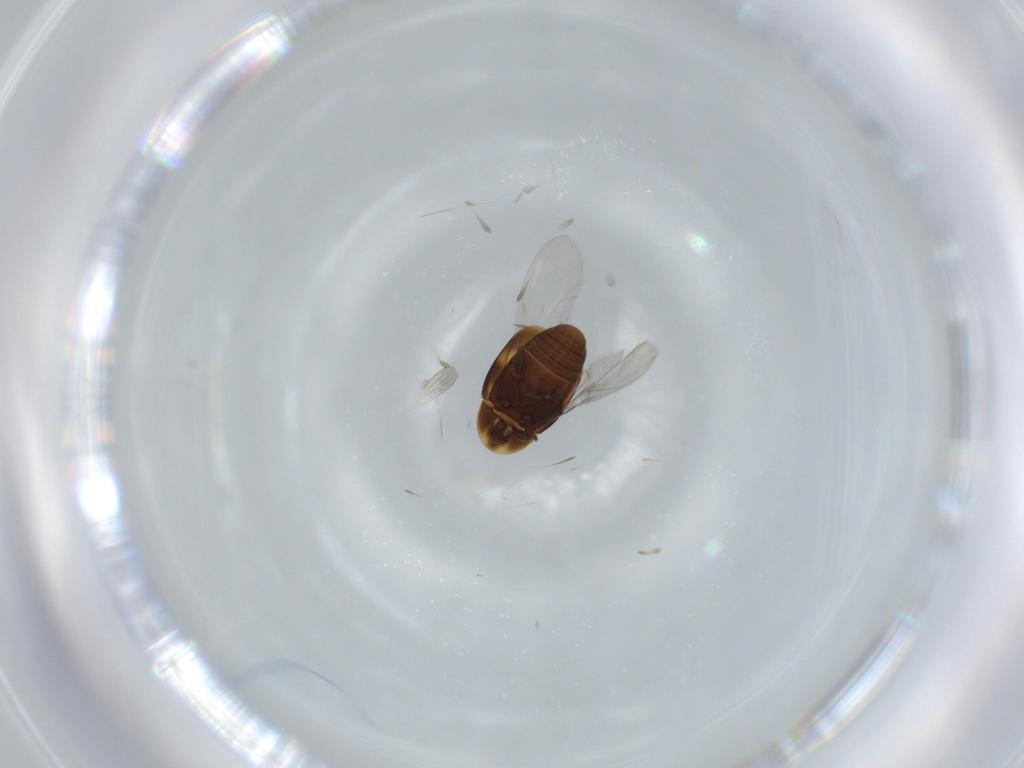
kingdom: Animalia
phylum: Arthropoda
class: Insecta
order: Coleoptera
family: Corylophidae
